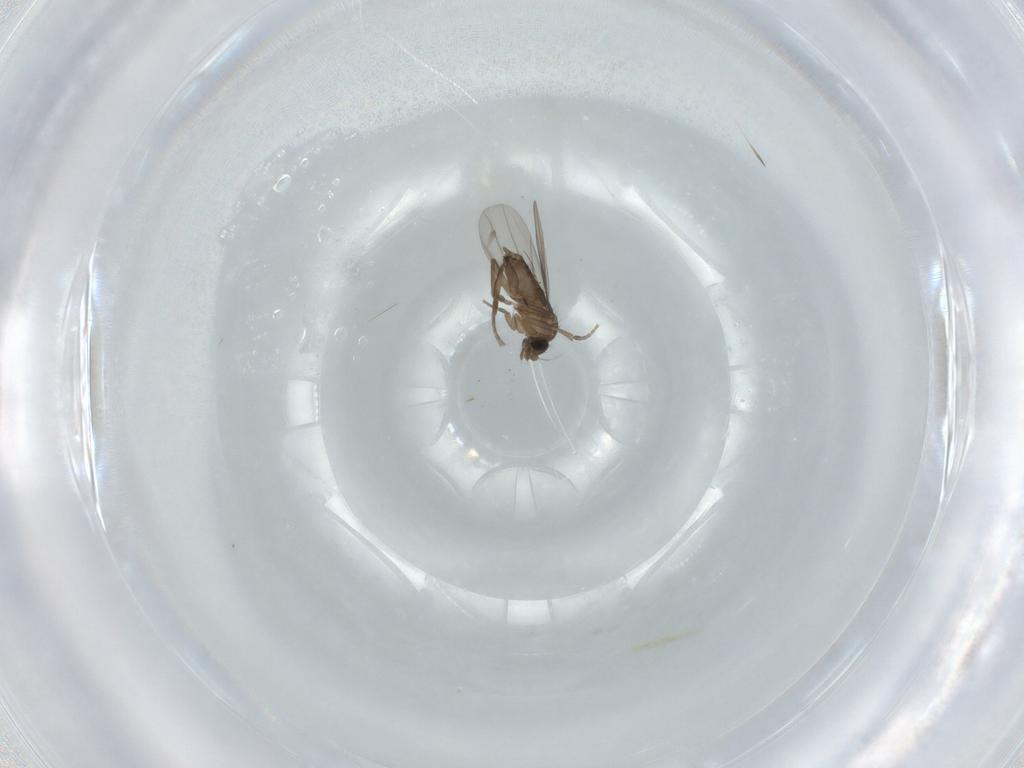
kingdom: Animalia
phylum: Arthropoda
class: Insecta
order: Diptera
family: Phoridae
